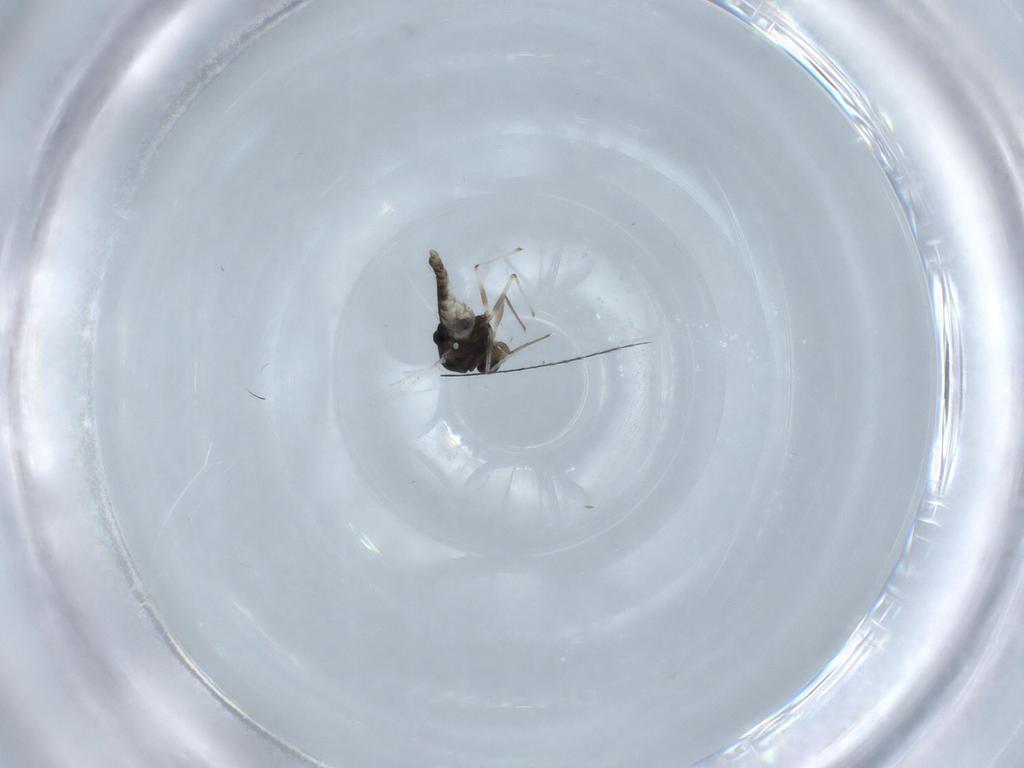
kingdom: Animalia
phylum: Arthropoda
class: Insecta
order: Diptera
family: Chironomidae
